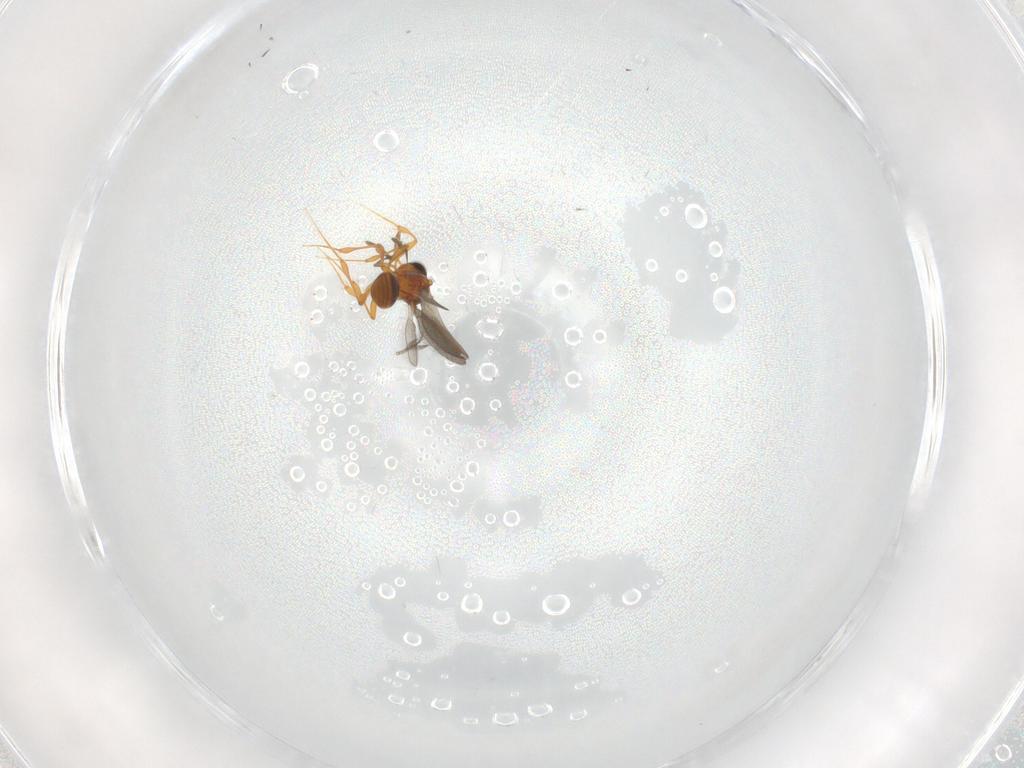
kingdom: Animalia
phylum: Arthropoda
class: Insecta
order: Hymenoptera
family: Platygastridae
